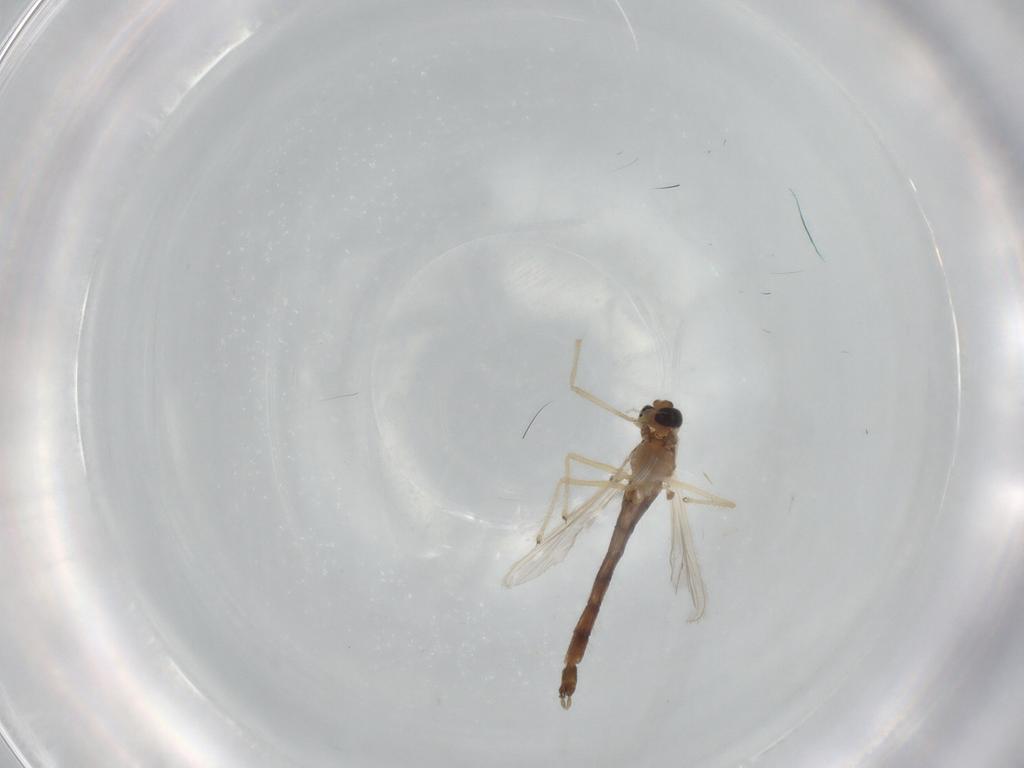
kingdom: Animalia
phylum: Arthropoda
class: Insecta
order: Diptera
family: Chironomidae
